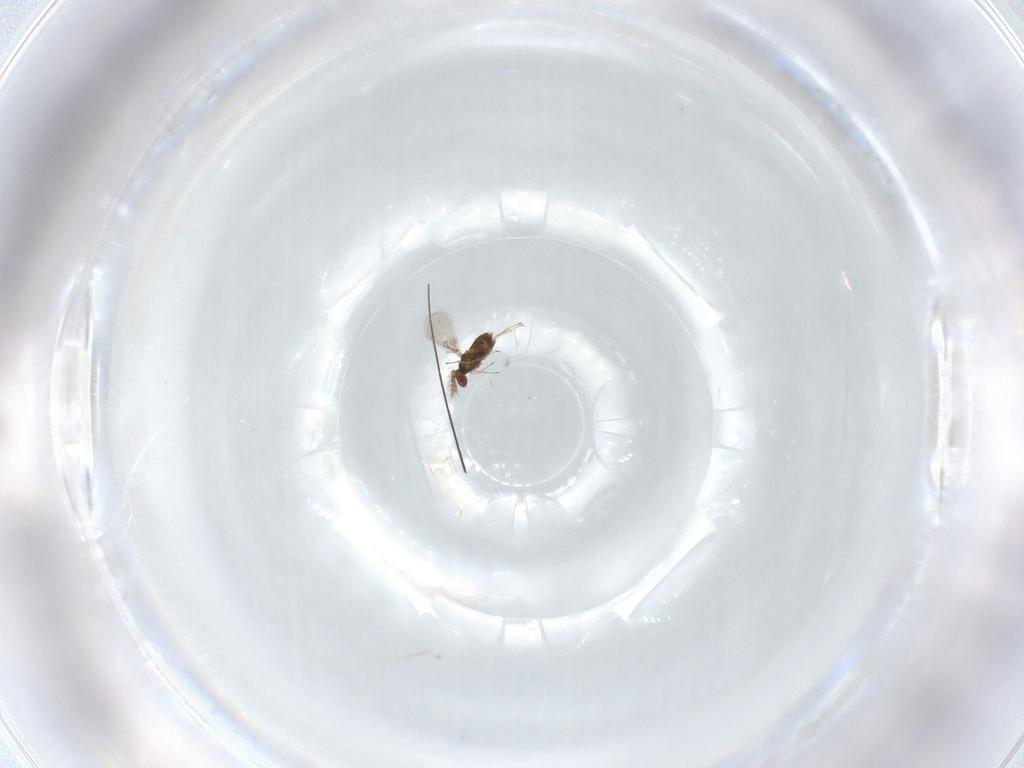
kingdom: Animalia
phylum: Arthropoda
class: Insecta
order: Hymenoptera
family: Trichogrammatidae
